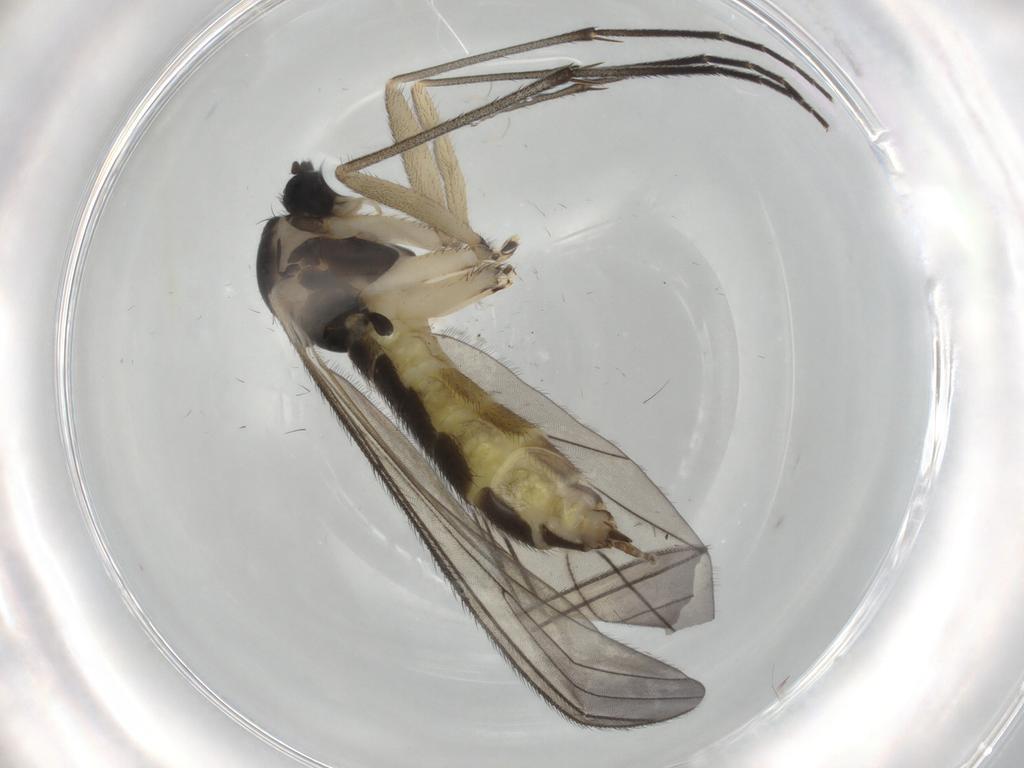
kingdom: Animalia
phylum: Arthropoda
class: Insecta
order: Diptera
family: Sciaridae
